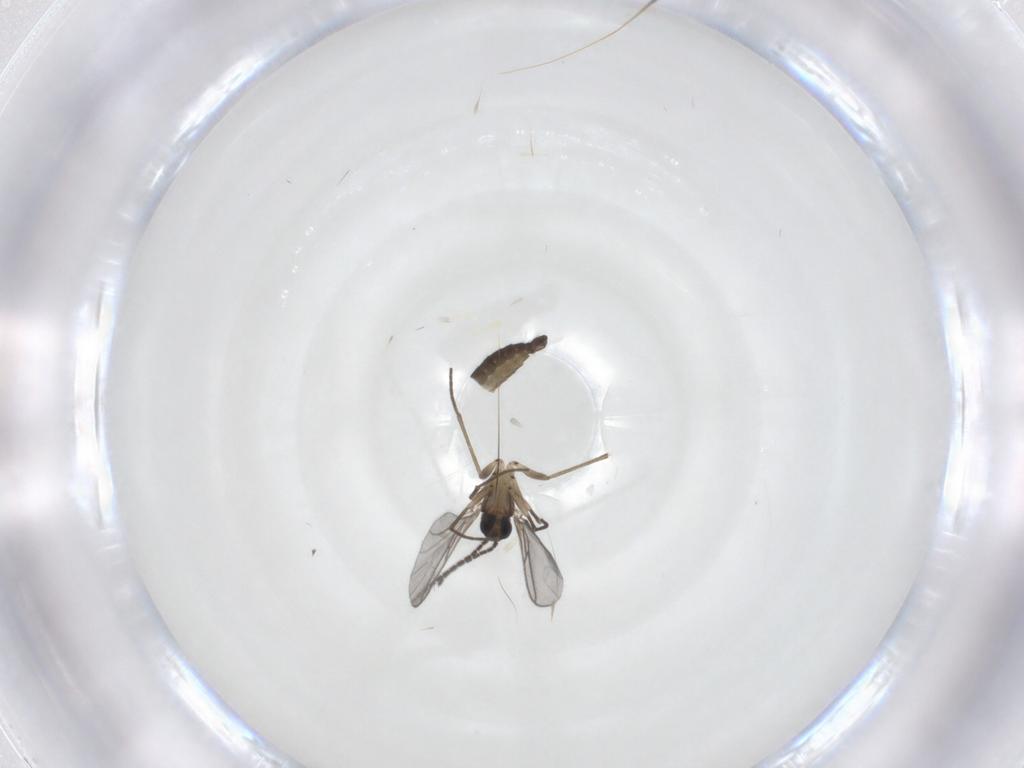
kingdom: Animalia
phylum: Arthropoda
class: Insecta
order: Diptera
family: Sciaridae
